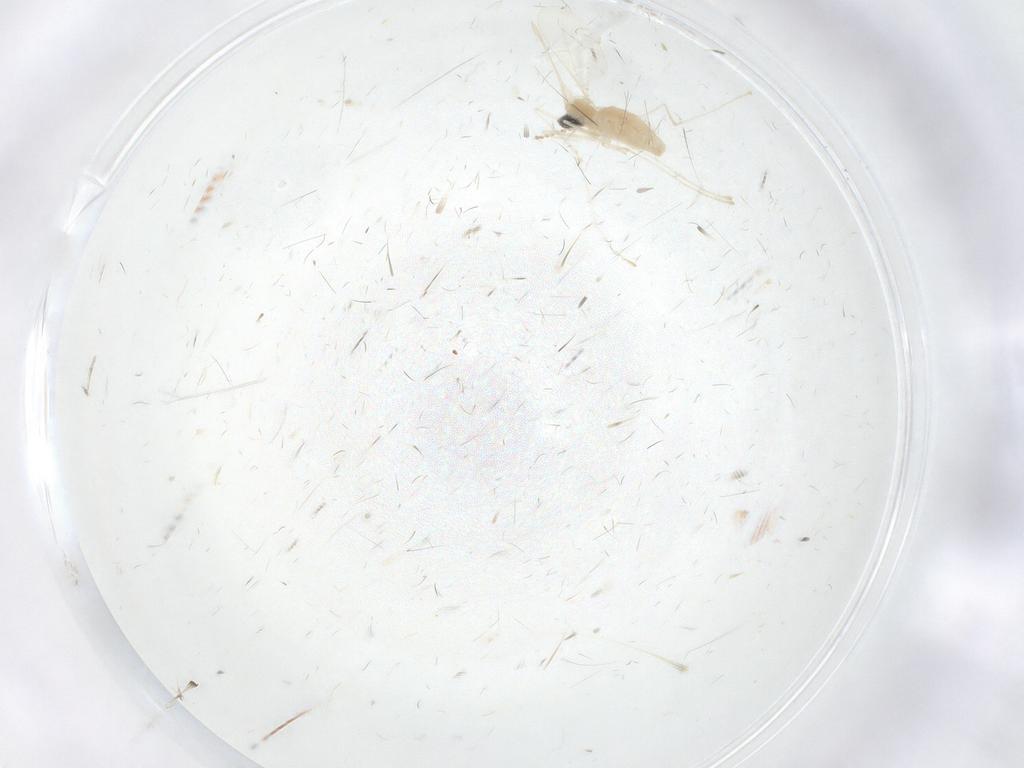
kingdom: Animalia
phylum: Arthropoda
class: Insecta
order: Diptera
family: Cecidomyiidae
